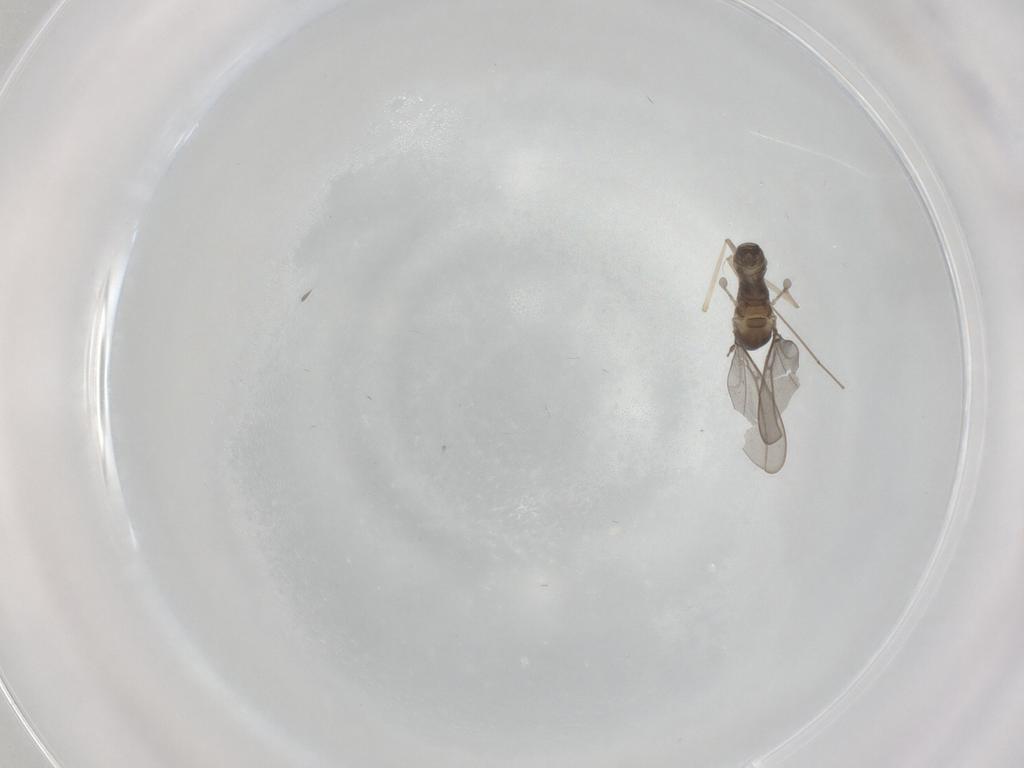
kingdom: Animalia
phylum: Arthropoda
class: Insecta
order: Diptera
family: Cecidomyiidae
